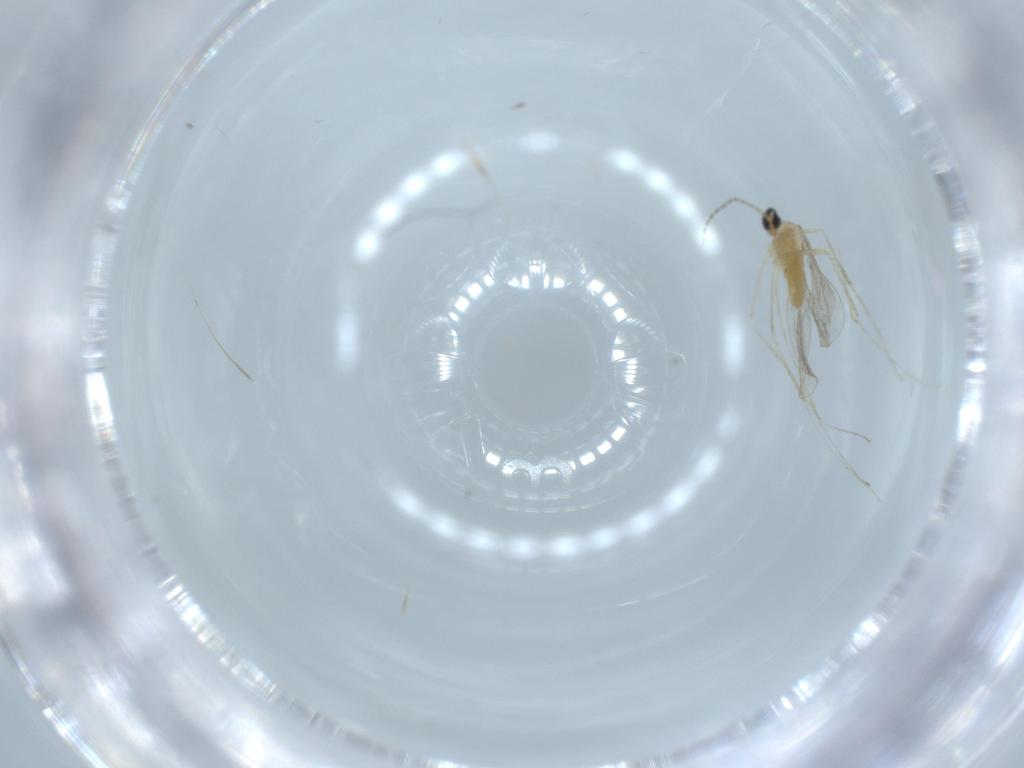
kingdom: Animalia
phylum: Arthropoda
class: Insecta
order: Diptera
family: Cecidomyiidae
